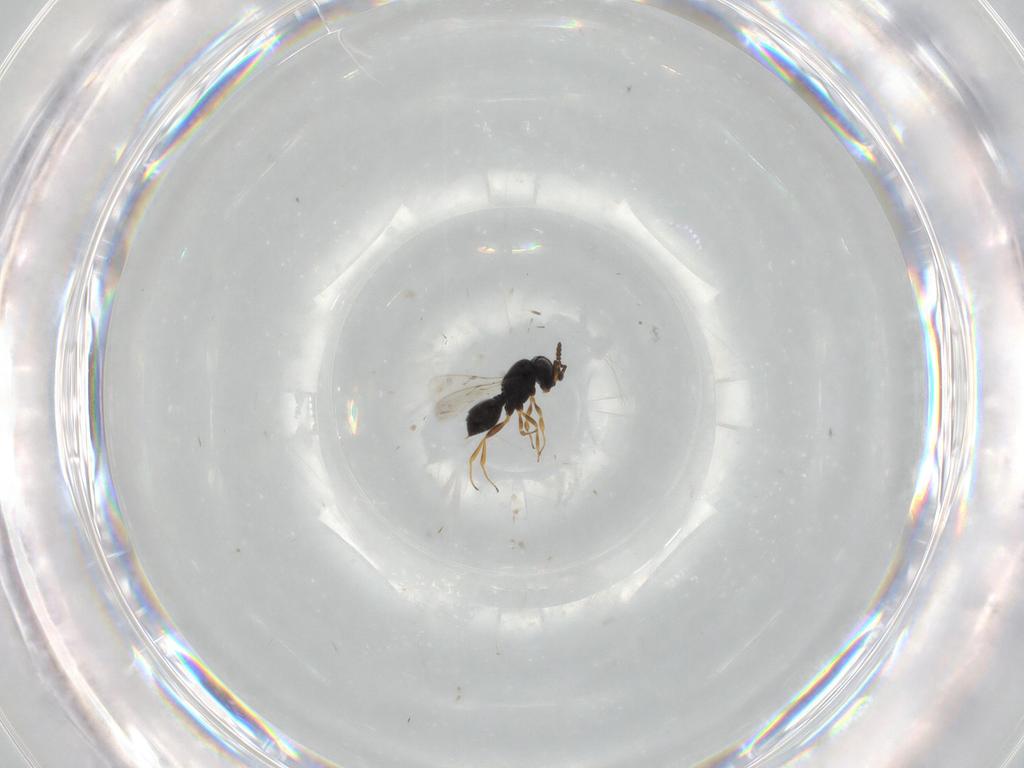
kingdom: Animalia
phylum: Arthropoda
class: Insecta
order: Hymenoptera
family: Scelionidae
